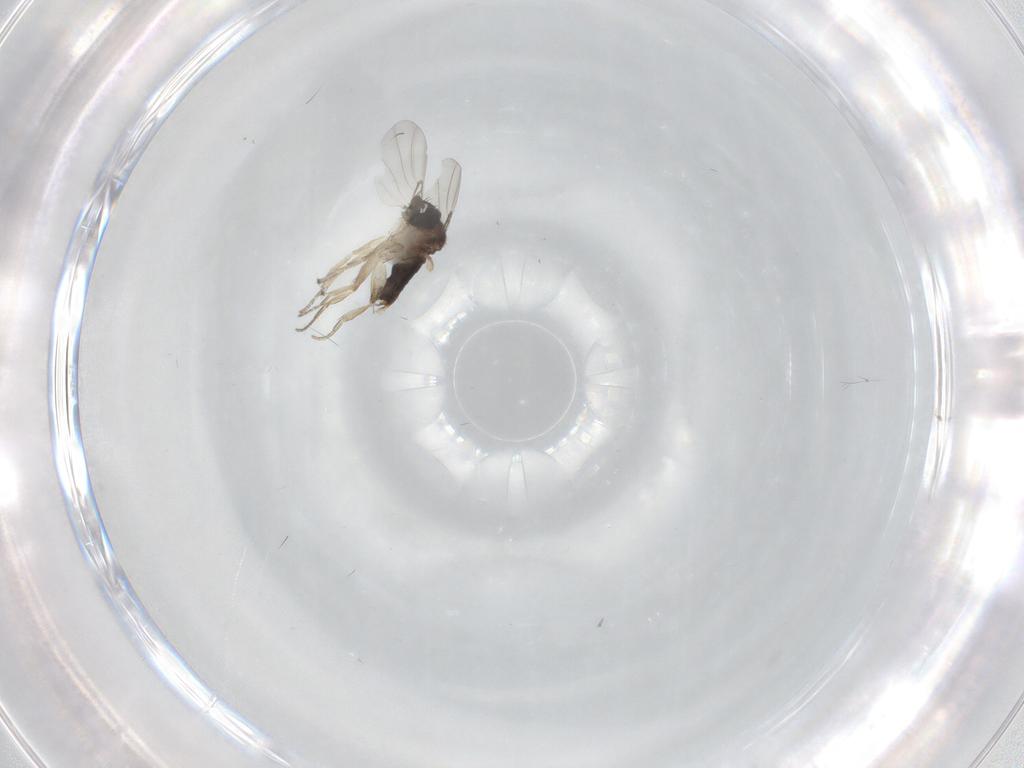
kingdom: Animalia
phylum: Arthropoda
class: Insecta
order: Diptera
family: Phoridae
